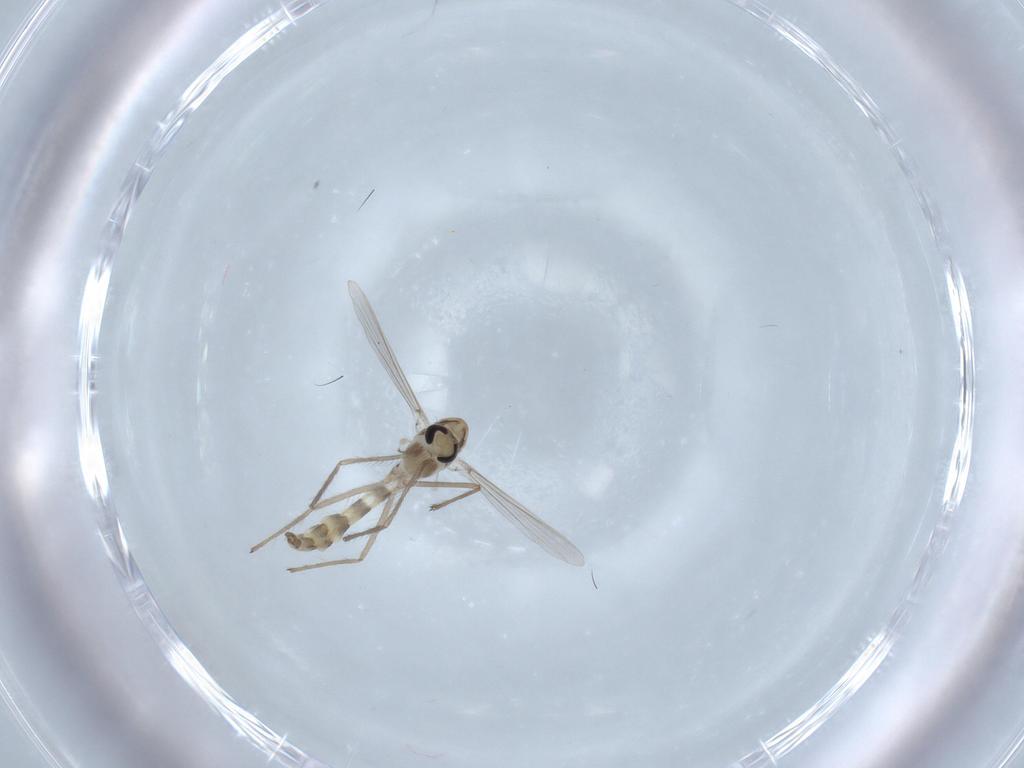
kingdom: Animalia
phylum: Arthropoda
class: Insecta
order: Diptera
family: Chironomidae
